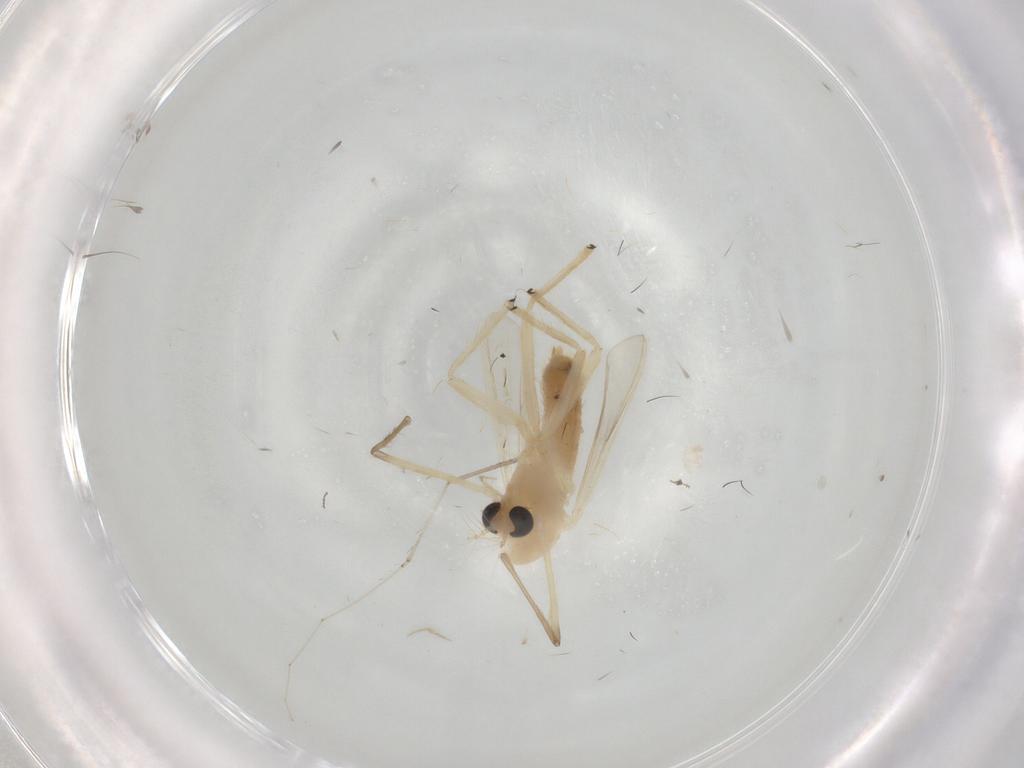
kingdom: Animalia
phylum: Arthropoda
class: Insecta
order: Diptera
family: Chironomidae
